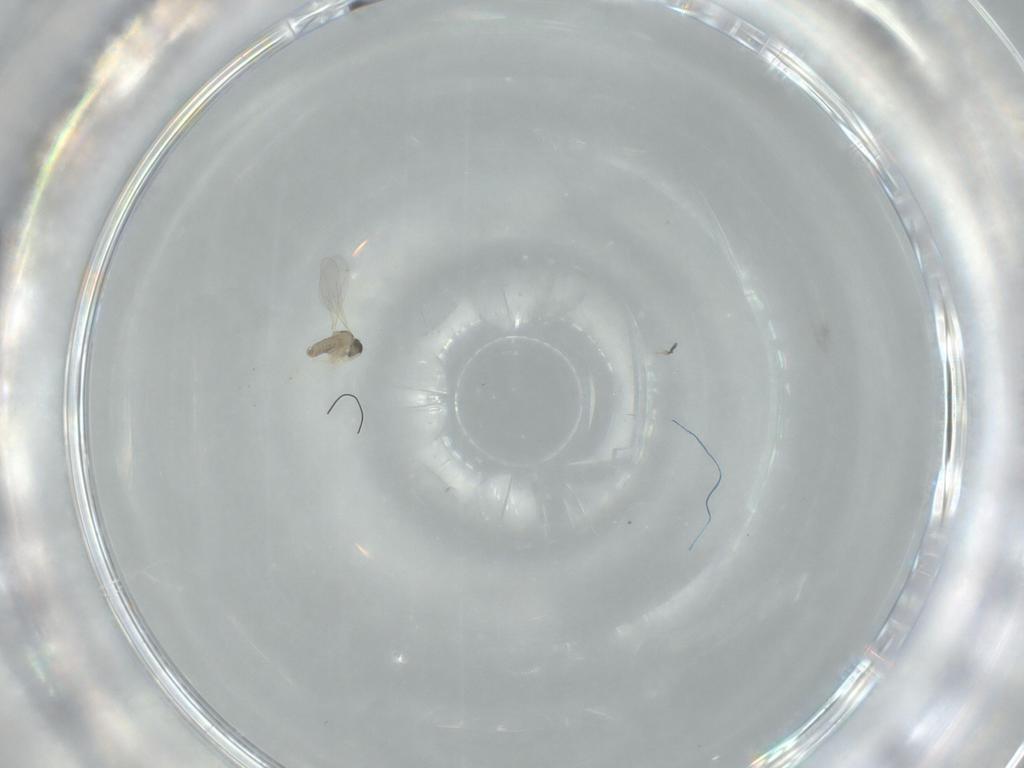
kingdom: Animalia
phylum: Arthropoda
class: Insecta
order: Diptera
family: Cecidomyiidae
